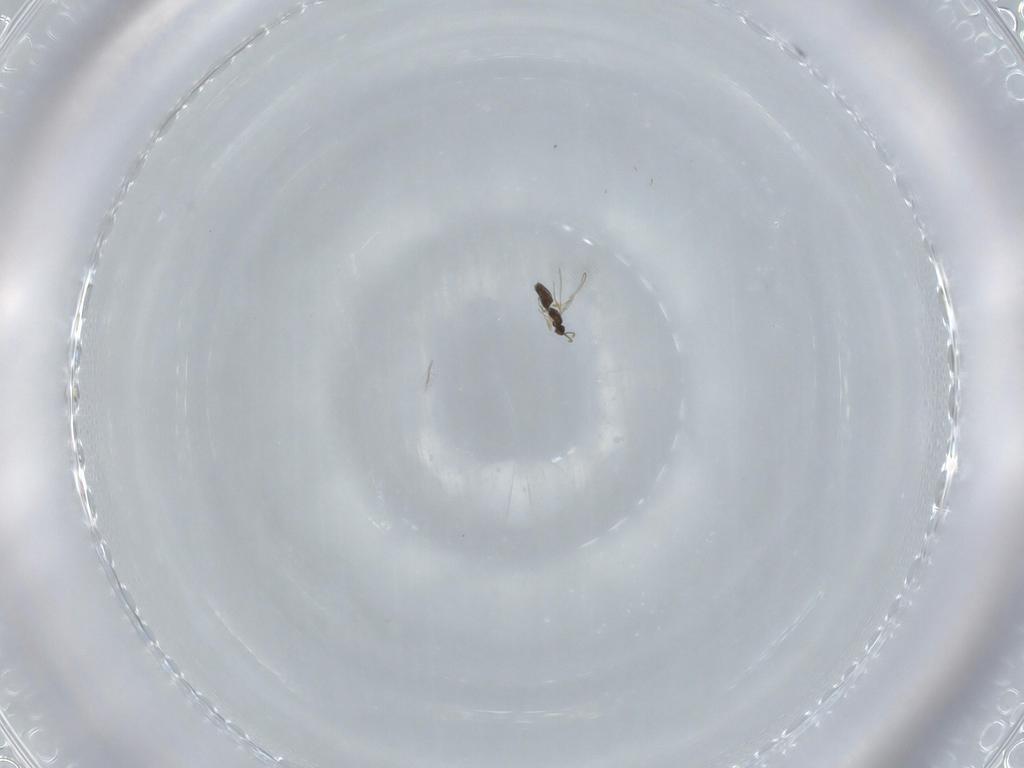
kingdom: Animalia
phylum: Arthropoda
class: Insecta
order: Hymenoptera
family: Mymaridae
